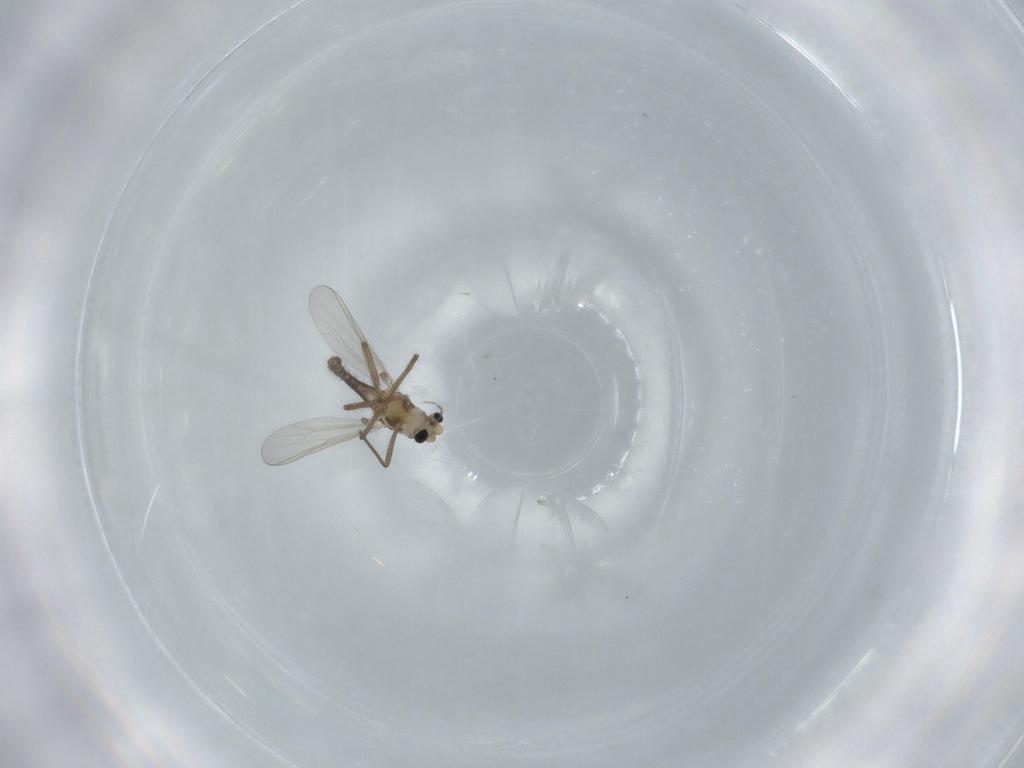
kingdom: Animalia
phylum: Arthropoda
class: Insecta
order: Diptera
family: Chironomidae
